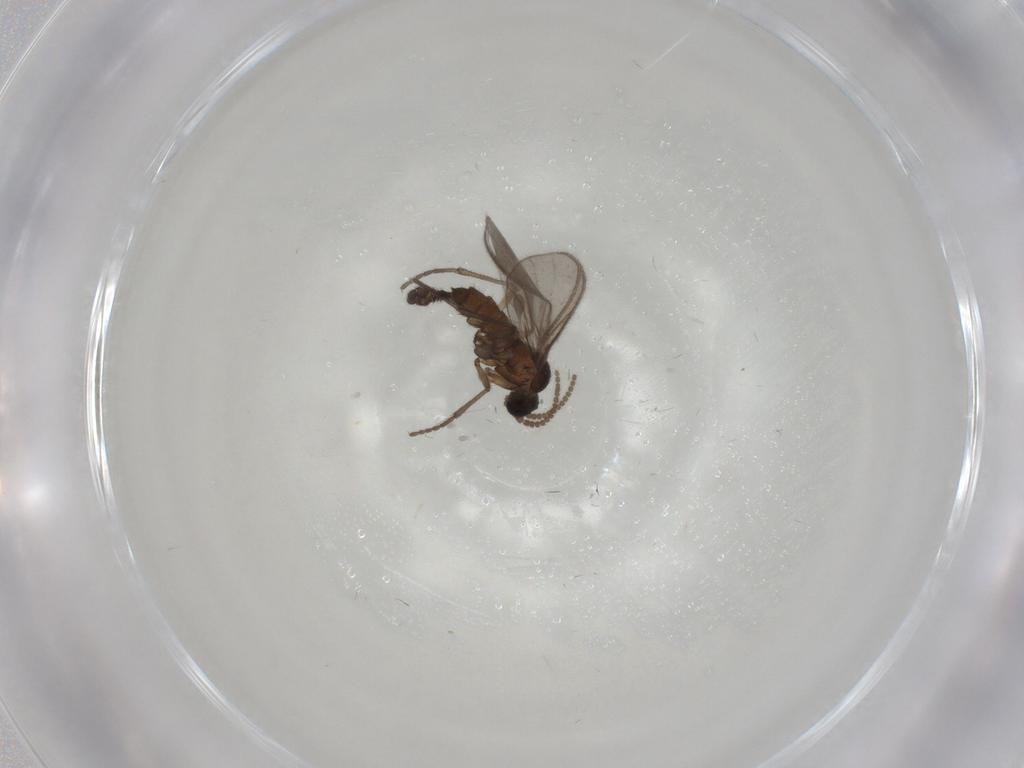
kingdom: Animalia
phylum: Arthropoda
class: Insecta
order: Diptera
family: Sciaridae
